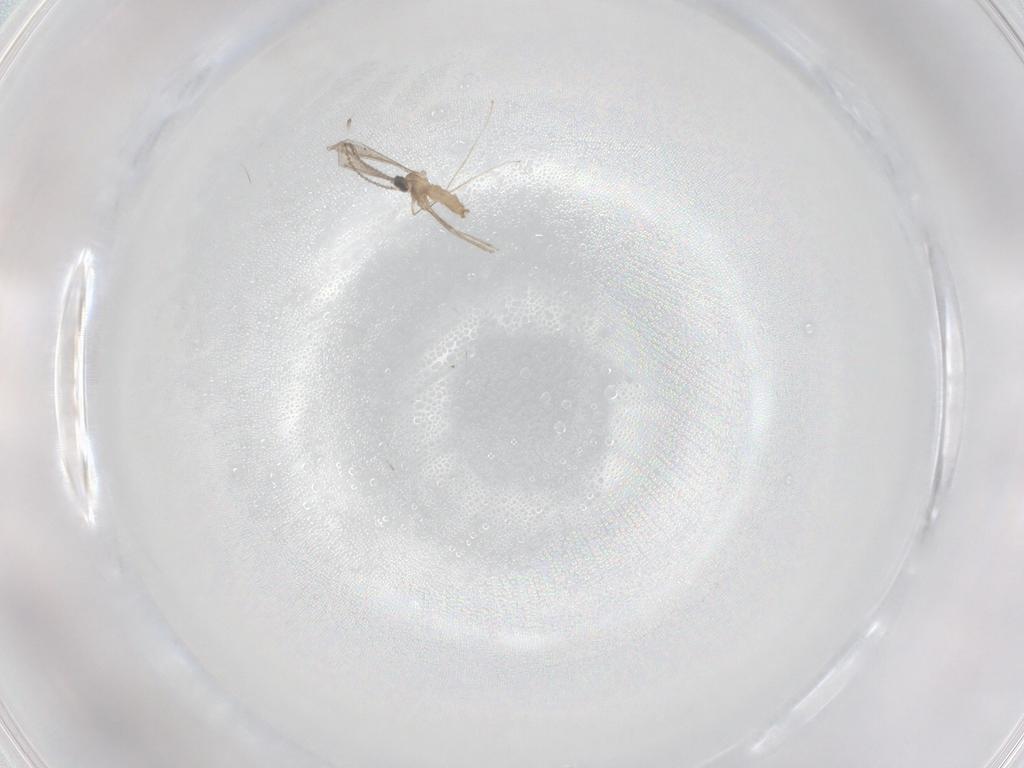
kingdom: Animalia
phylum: Arthropoda
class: Insecta
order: Diptera
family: Cecidomyiidae
